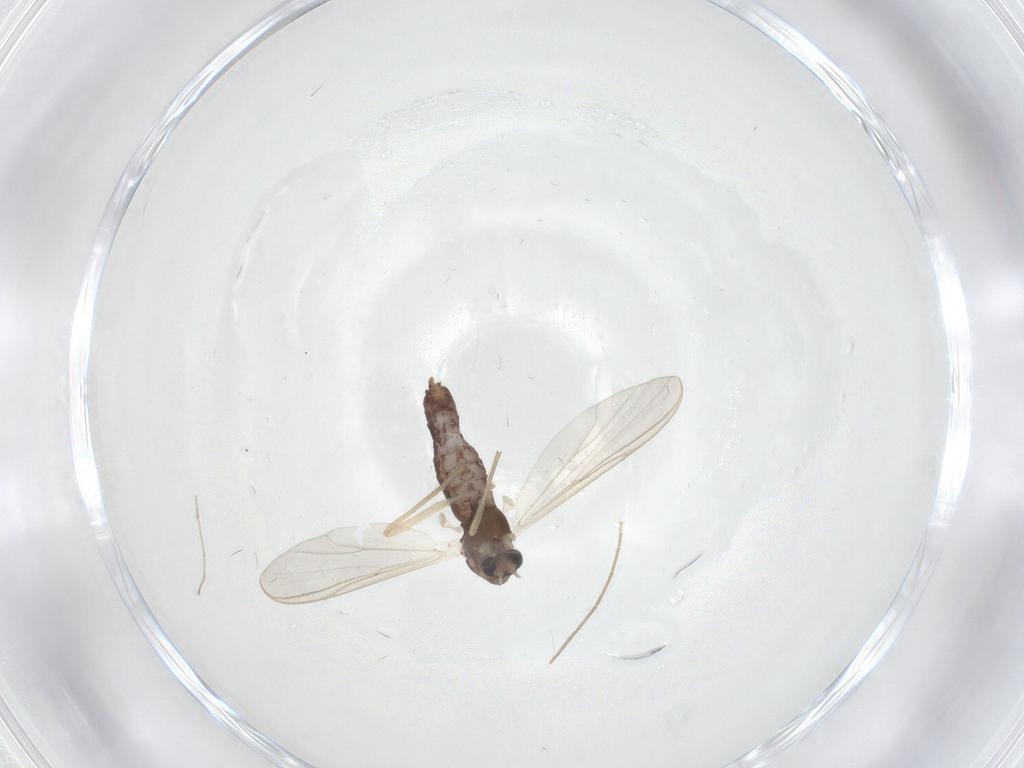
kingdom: Animalia
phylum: Arthropoda
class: Insecta
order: Diptera
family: Chironomidae
